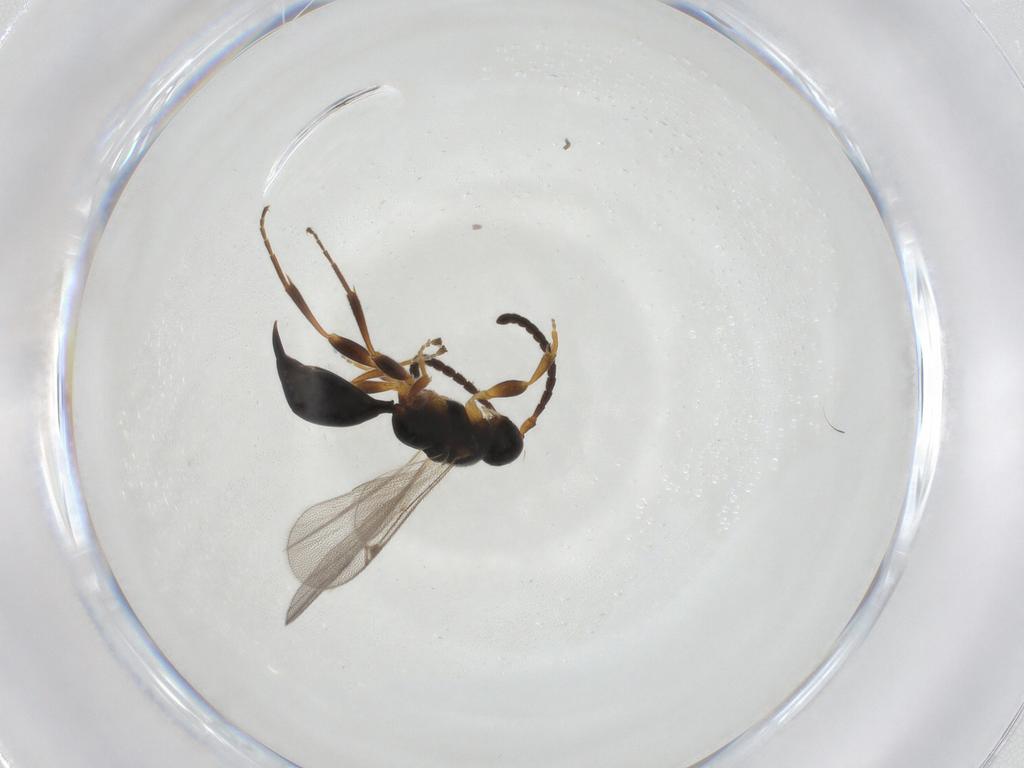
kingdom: Animalia
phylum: Arthropoda
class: Insecta
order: Hymenoptera
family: Proctotrupidae
